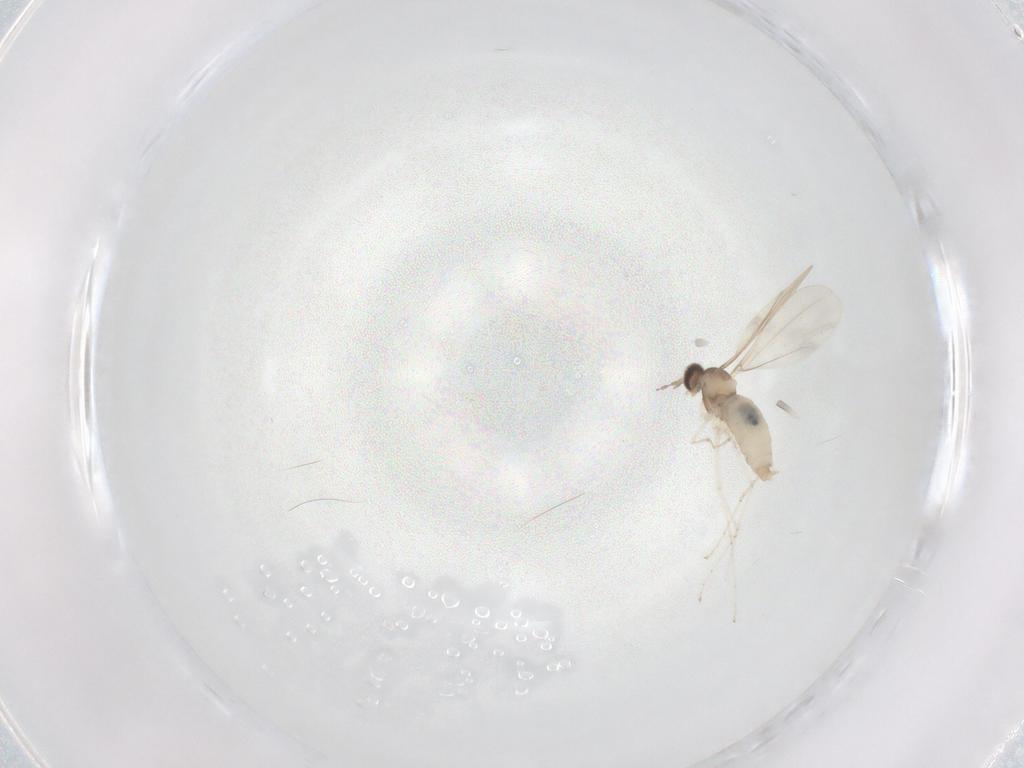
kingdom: Animalia
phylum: Arthropoda
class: Insecta
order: Diptera
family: Cecidomyiidae
